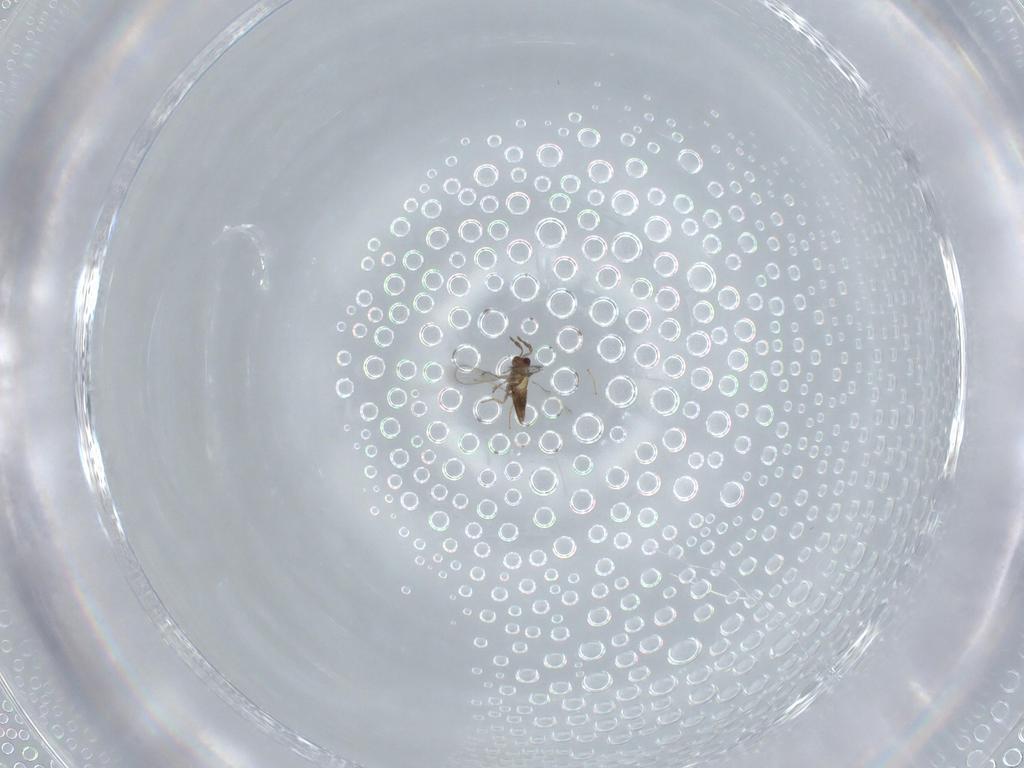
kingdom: Animalia
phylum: Arthropoda
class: Insecta
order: Hymenoptera
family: Trichogrammatidae
